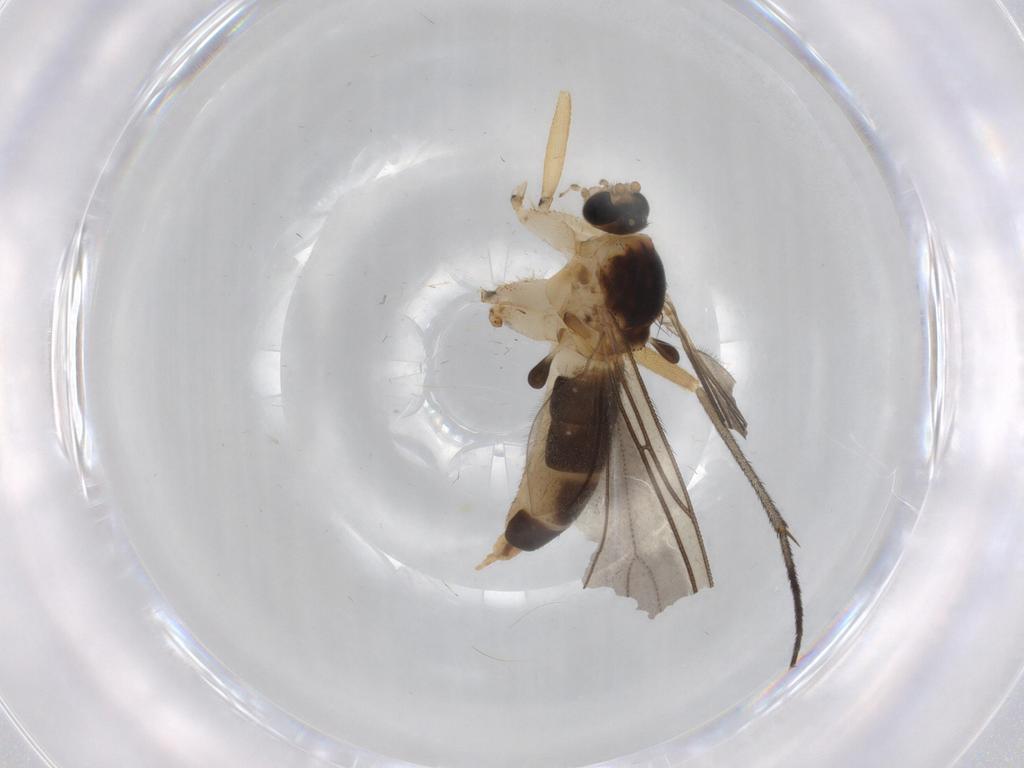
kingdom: Animalia
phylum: Arthropoda
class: Insecta
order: Diptera
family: Sciaridae
